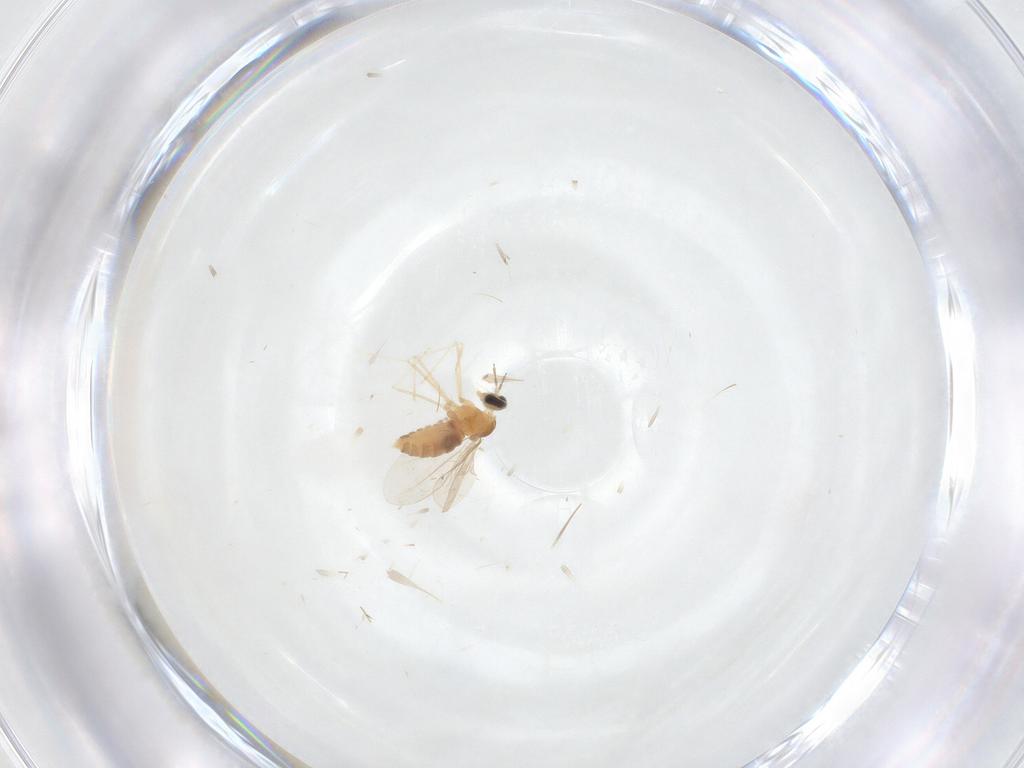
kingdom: Animalia
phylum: Arthropoda
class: Insecta
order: Diptera
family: Cecidomyiidae
